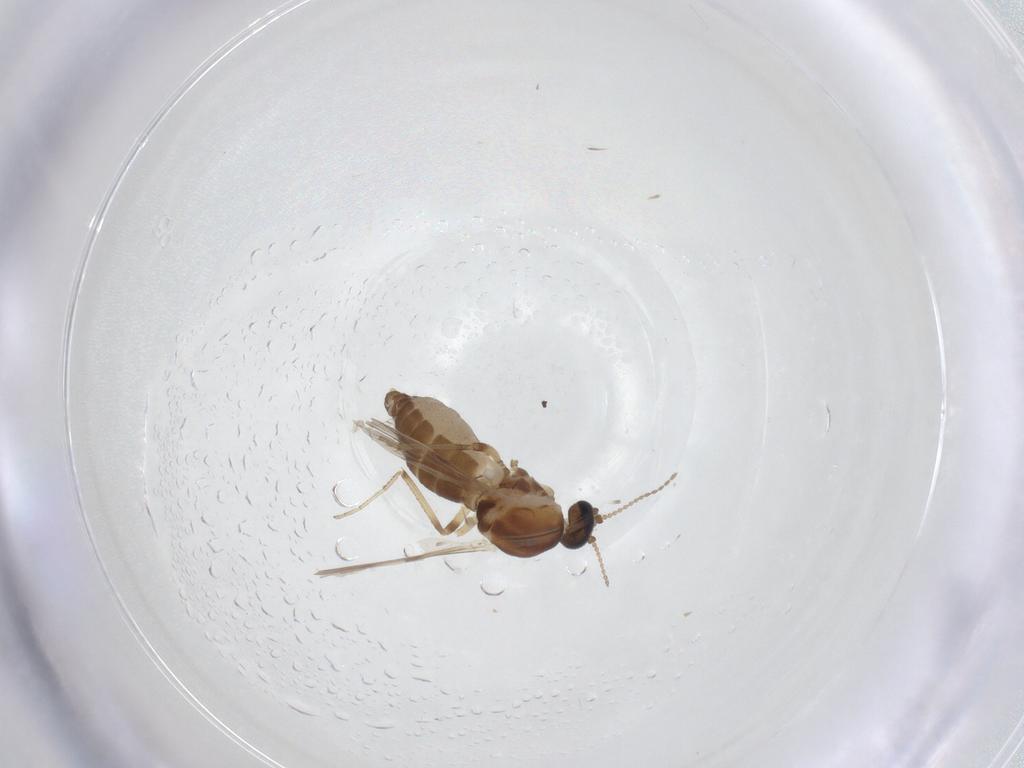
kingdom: Animalia
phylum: Arthropoda
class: Insecta
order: Diptera
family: Ceratopogonidae
